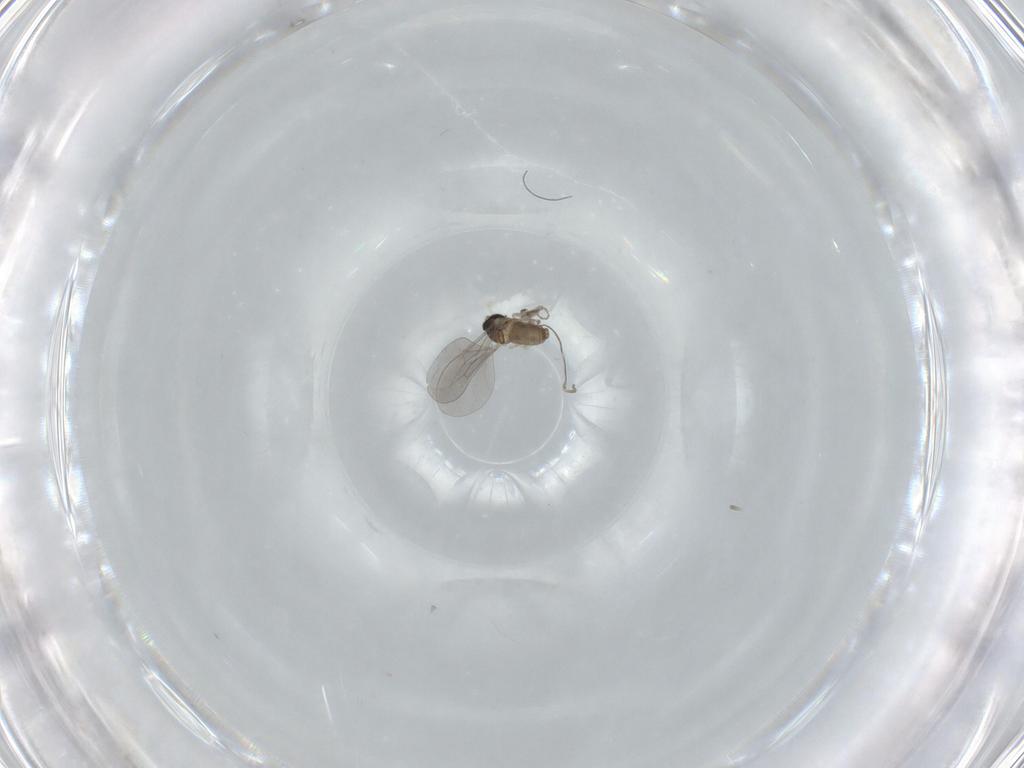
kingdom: Animalia
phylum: Arthropoda
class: Insecta
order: Diptera
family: Cecidomyiidae
